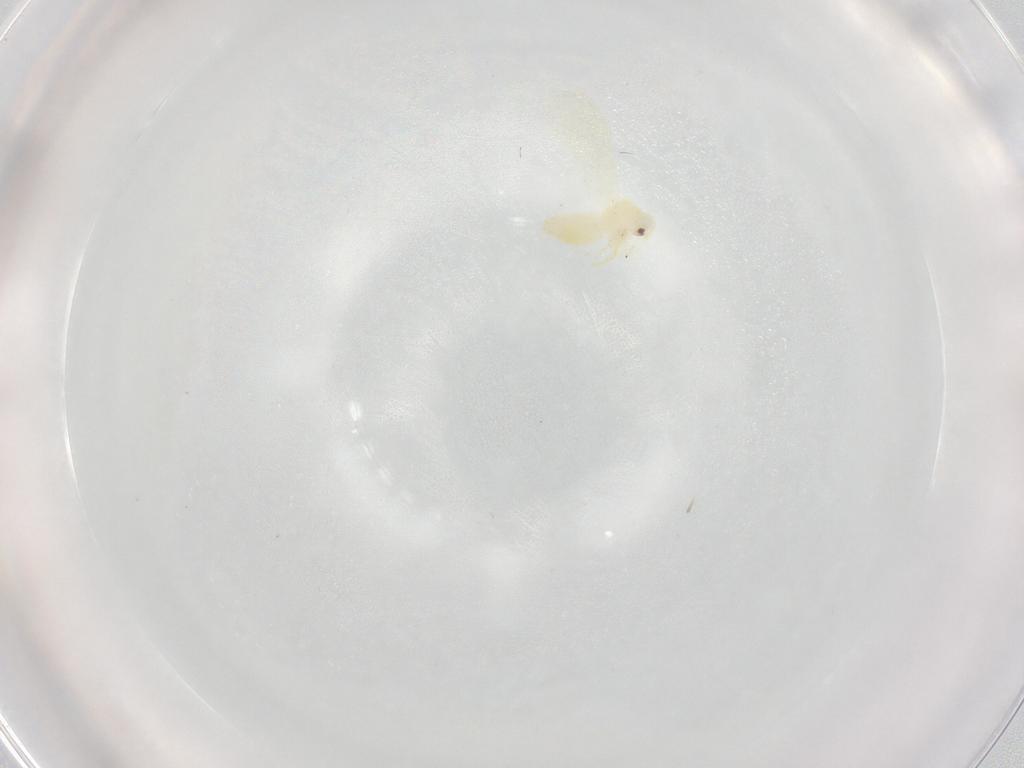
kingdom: Animalia
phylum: Arthropoda
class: Insecta
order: Hemiptera
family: Aleyrodidae
